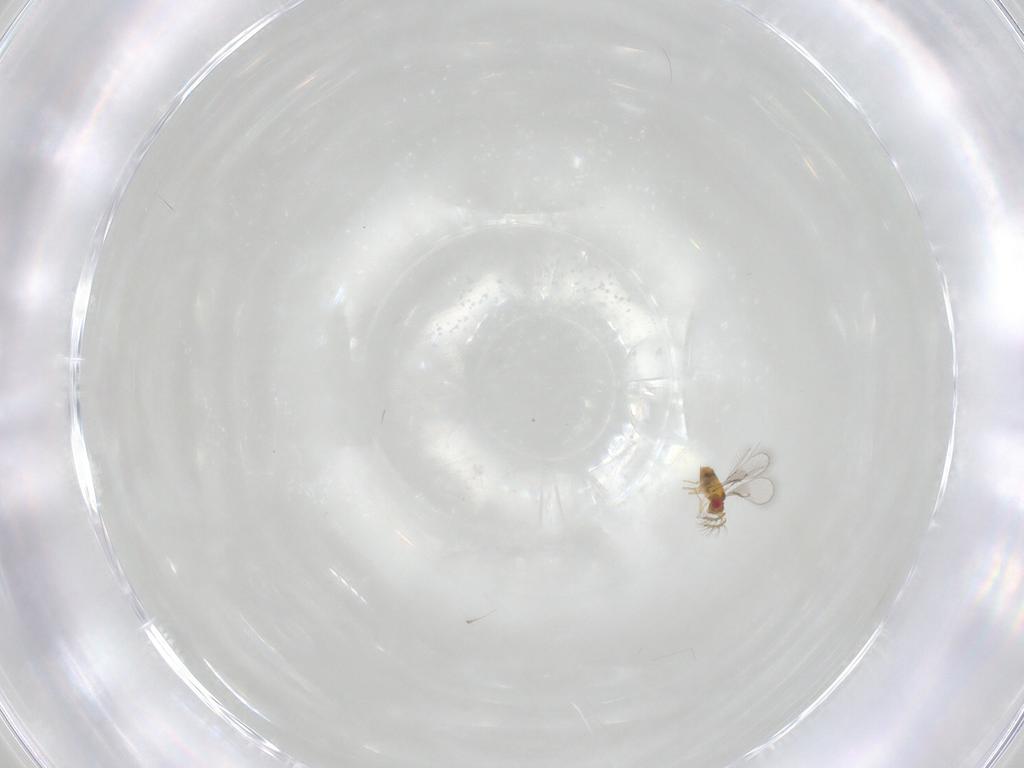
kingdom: Animalia
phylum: Arthropoda
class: Insecta
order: Hymenoptera
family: Trichogrammatidae
